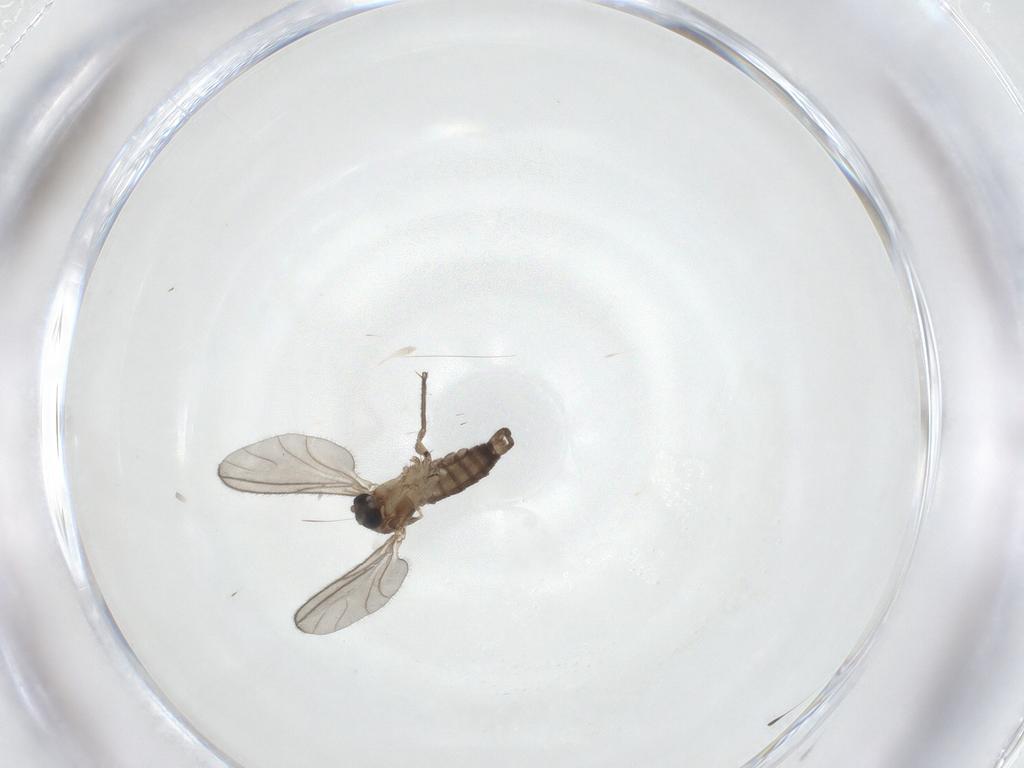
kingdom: Animalia
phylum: Arthropoda
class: Insecta
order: Diptera
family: Sciaridae
